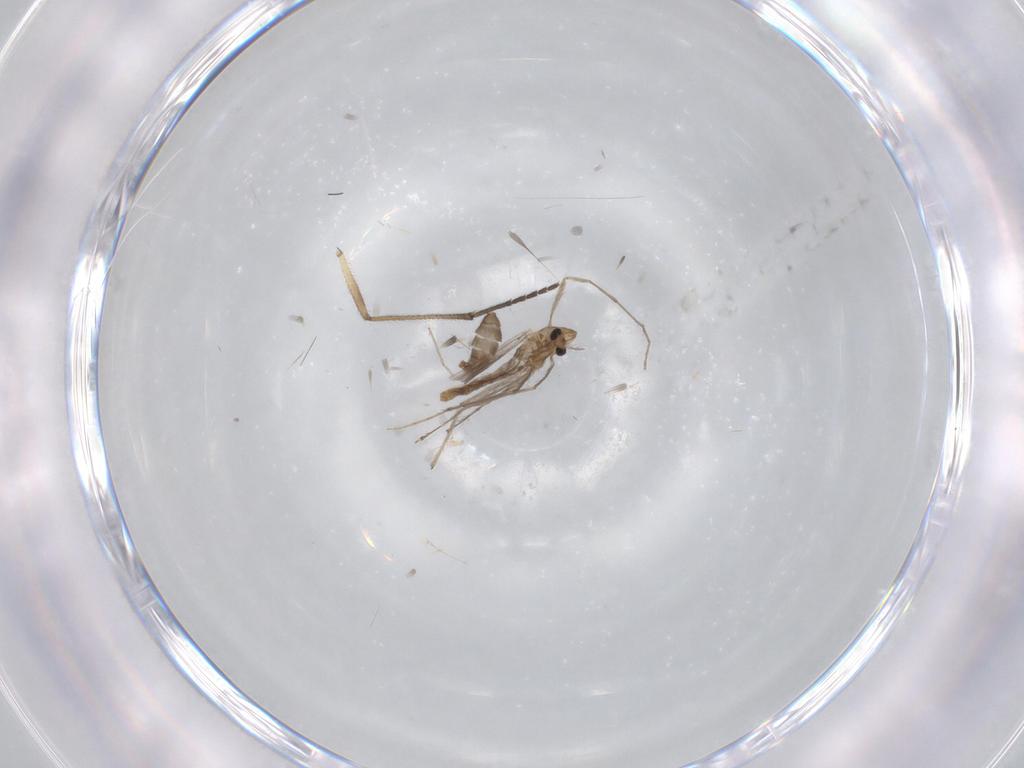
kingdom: Animalia
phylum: Arthropoda
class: Insecta
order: Diptera
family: Chironomidae
